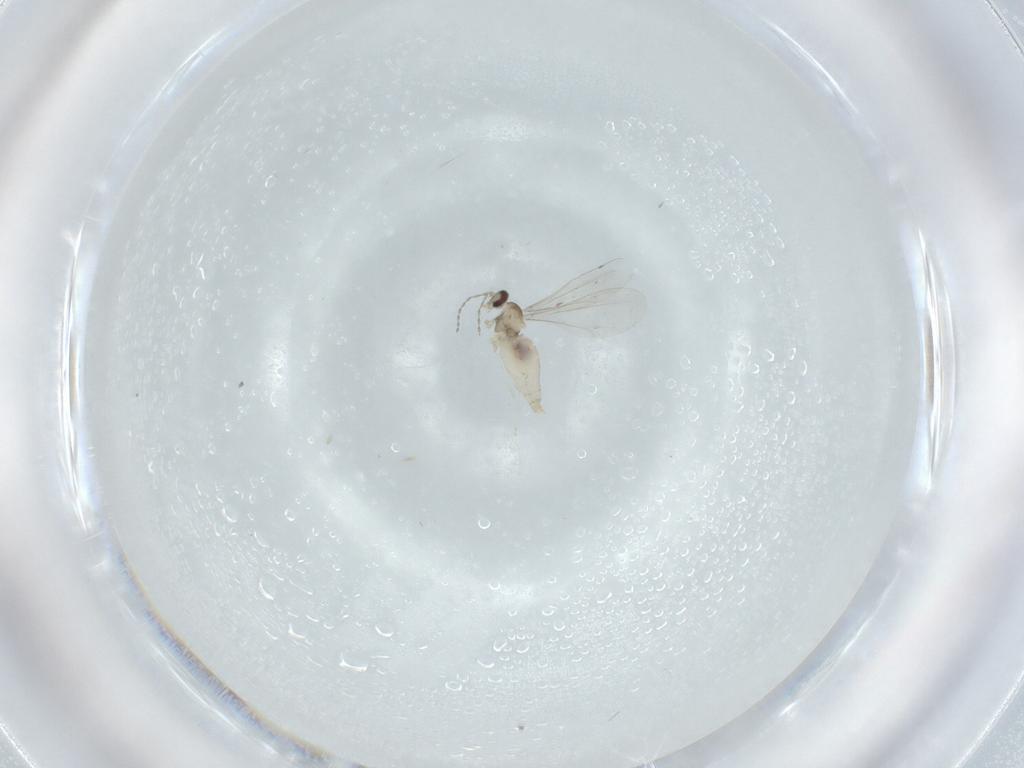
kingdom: Animalia
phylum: Arthropoda
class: Insecta
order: Diptera
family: Cecidomyiidae
